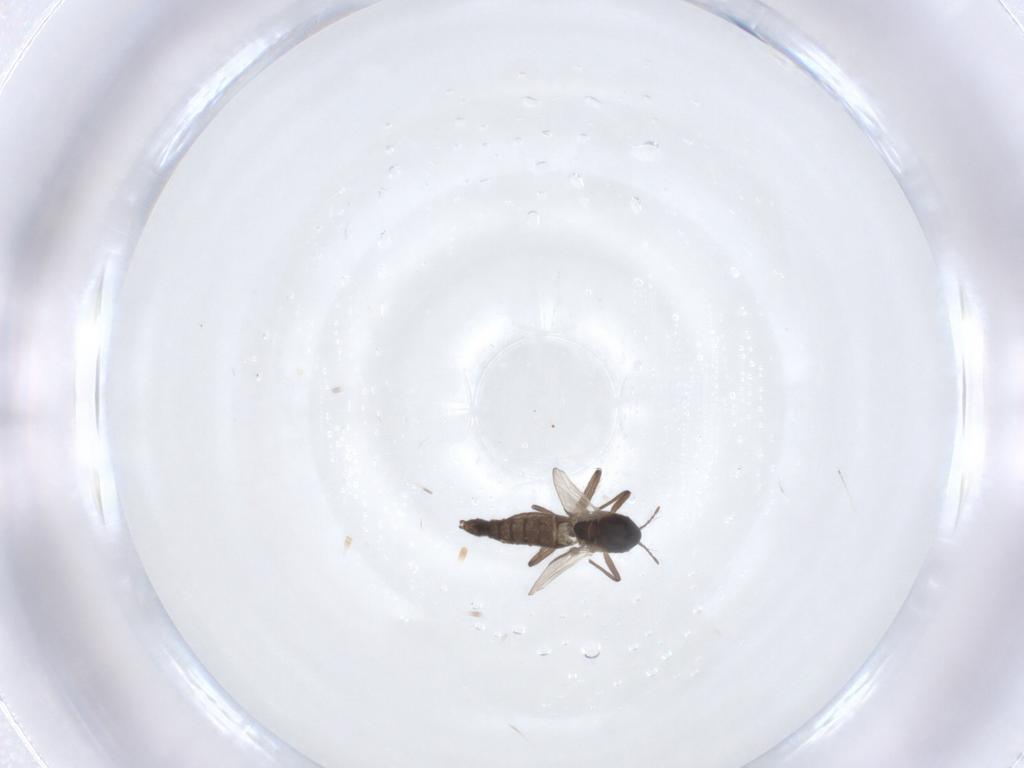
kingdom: Animalia
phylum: Arthropoda
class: Insecta
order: Diptera
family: Chironomidae
